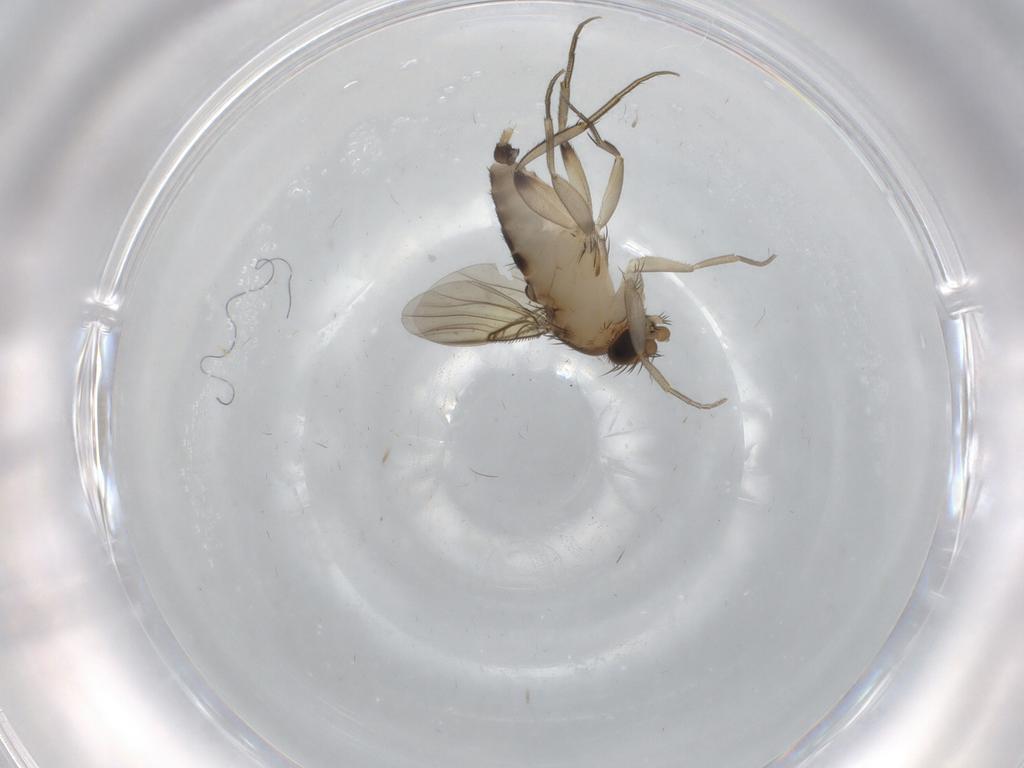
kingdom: Animalia
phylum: Arthropoda
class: Insecta
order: Diptera
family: Phoridae
